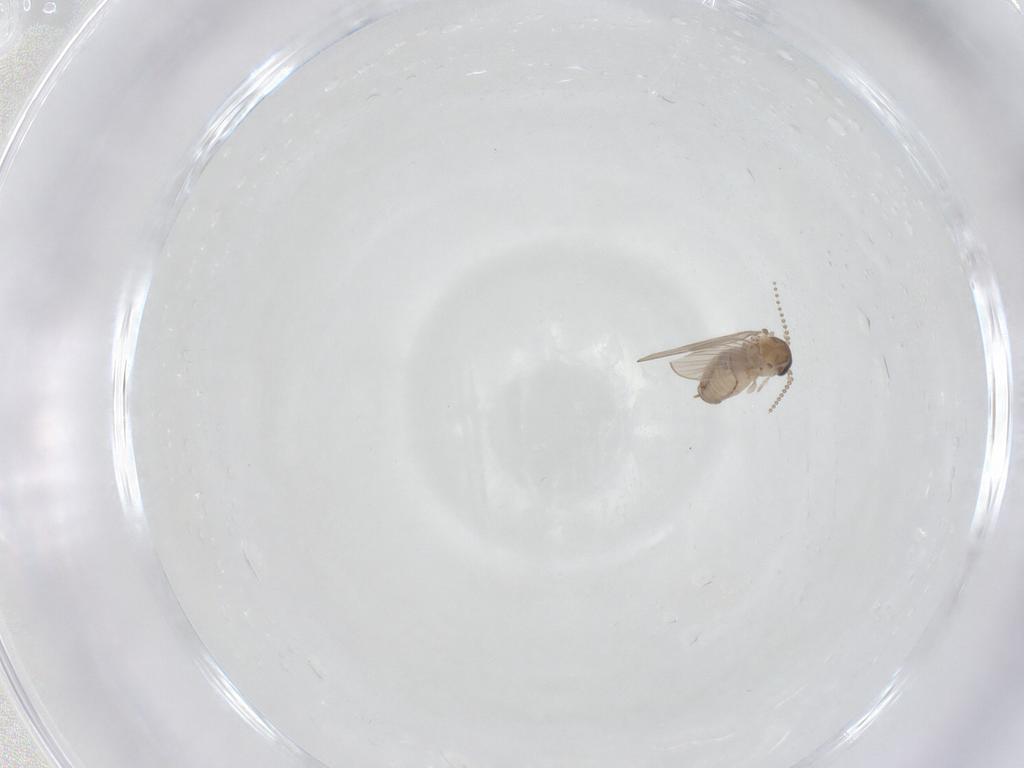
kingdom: Animalia
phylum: Arthropoda
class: Insecta
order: Diptera
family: Psychodidae
